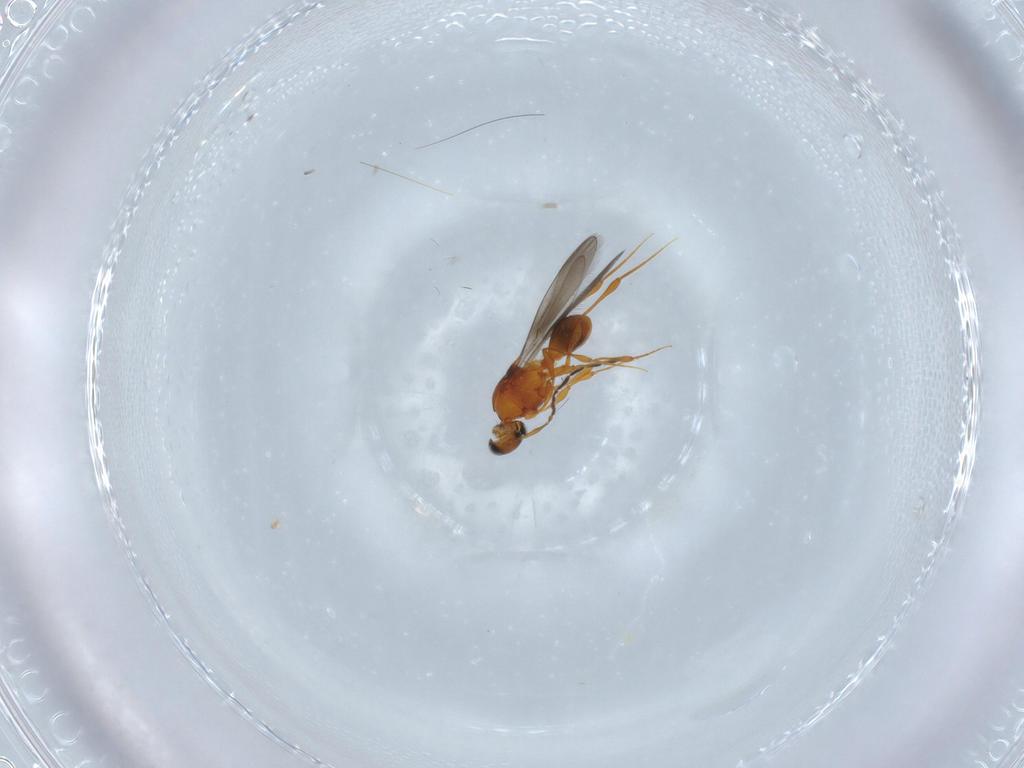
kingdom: Animalia
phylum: Arthropoda
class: Insecta
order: Hymenoptera
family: Platygastridae
